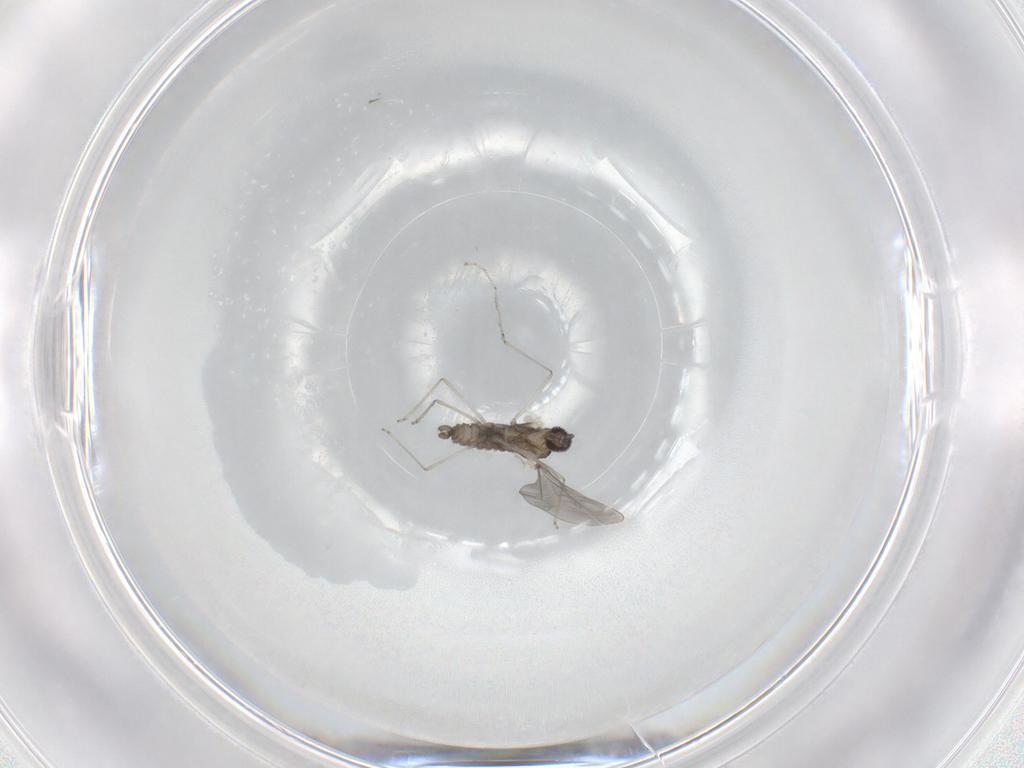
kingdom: Animalia
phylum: Arthropoda
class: Insecta
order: Diptera
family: Cecidomyiidae
